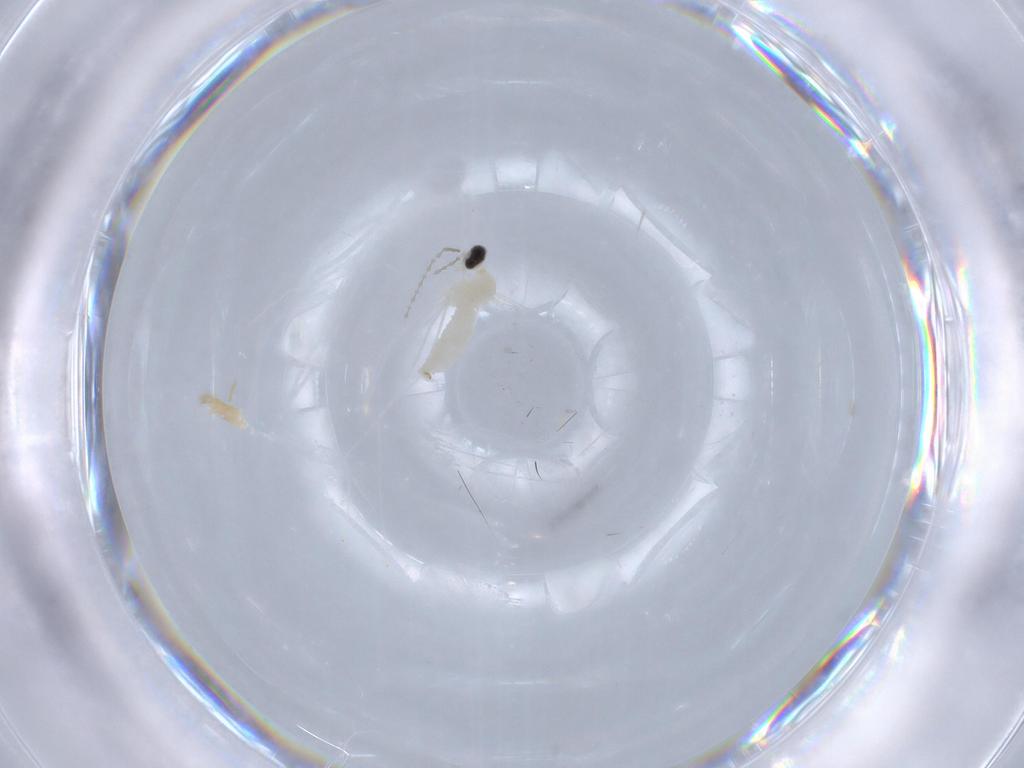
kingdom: Animalia
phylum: Arthropoda
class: Insecta
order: Diptera
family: Cecidomyiidae
